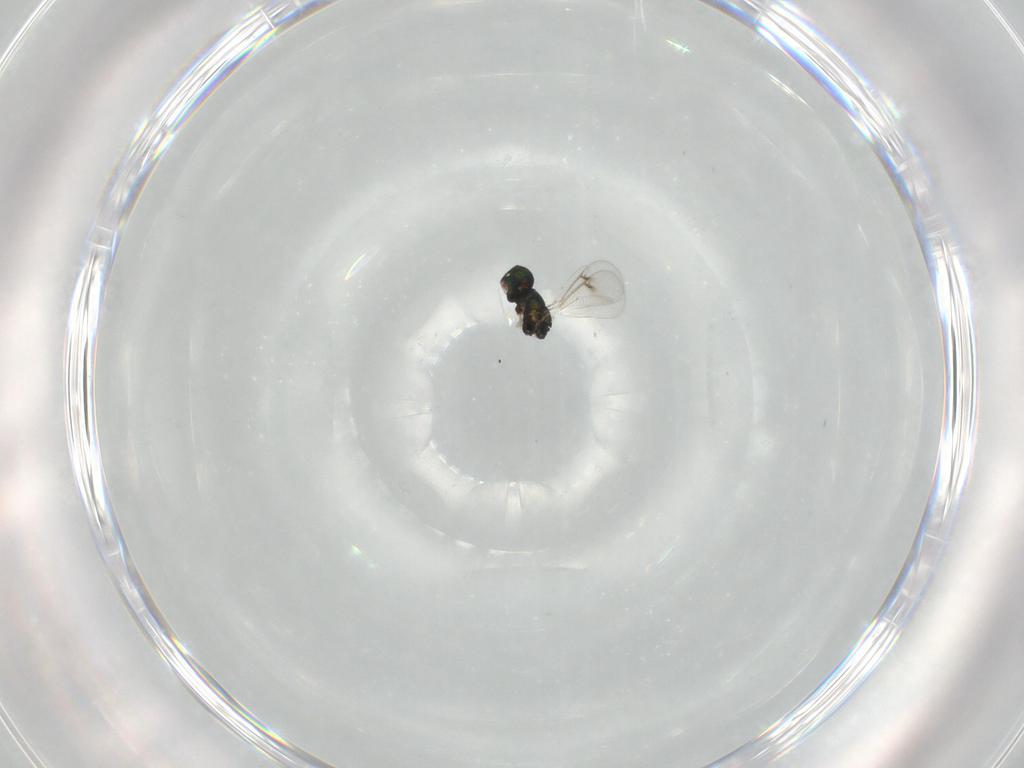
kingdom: Animalia
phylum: Arthropoda
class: Insecta
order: Hymenoptera
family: Eulophidae
